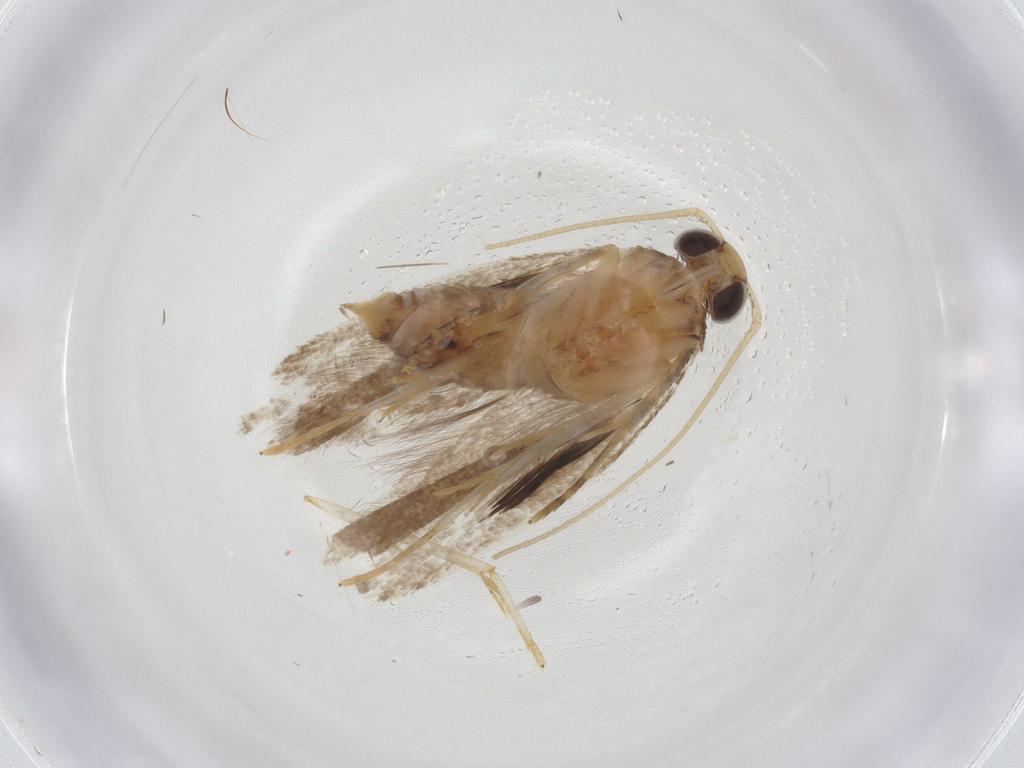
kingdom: Animalia
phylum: Arthropoda
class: Insecta
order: Lepidoptera
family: Gelechiidae
